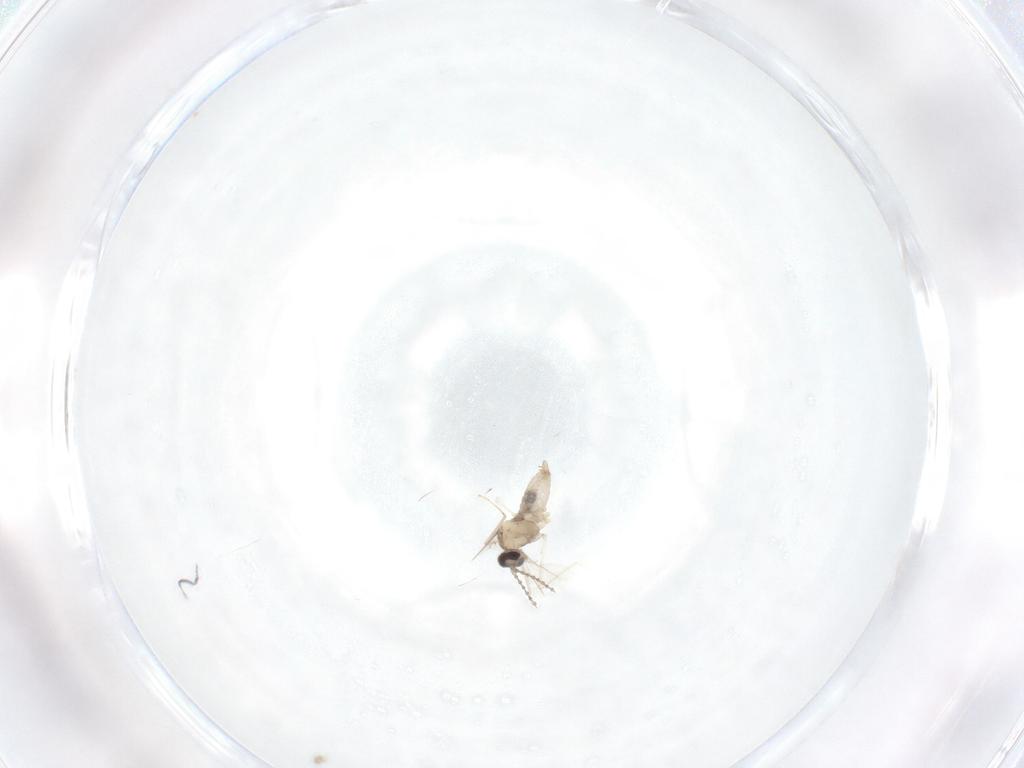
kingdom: Animalia
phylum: Arthropoda
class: Insecta
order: Diptera
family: Cecidomyiidae
